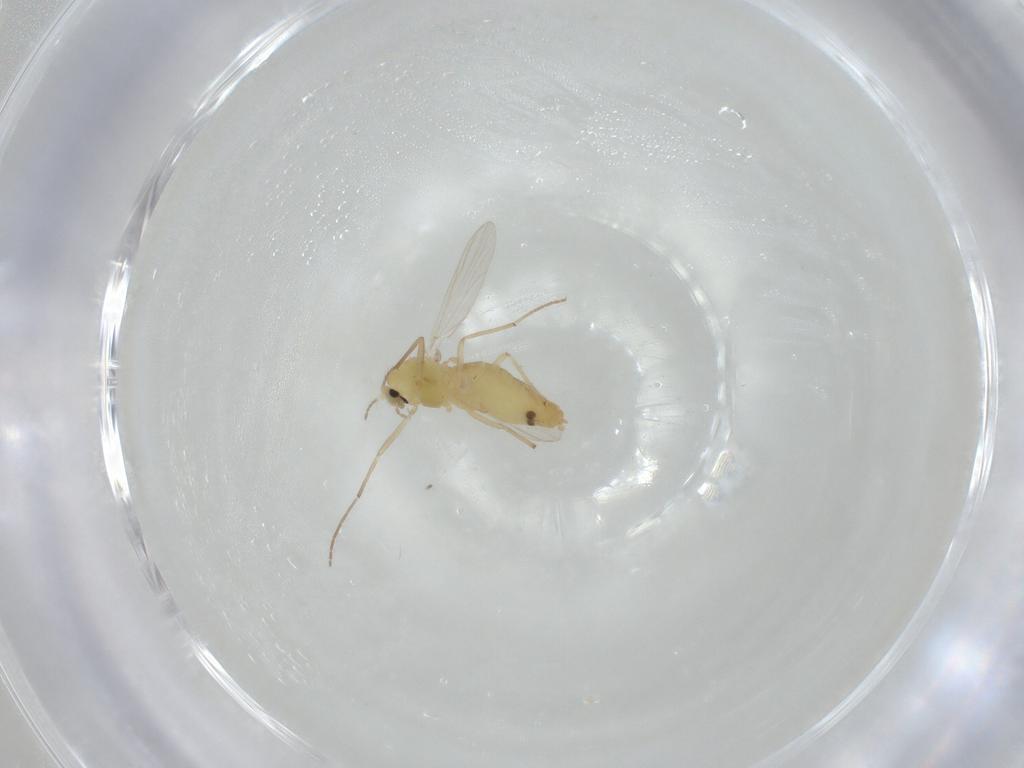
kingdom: Animalia
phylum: Arthropoda
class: Insecta
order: Diptera
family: Chironomidae
